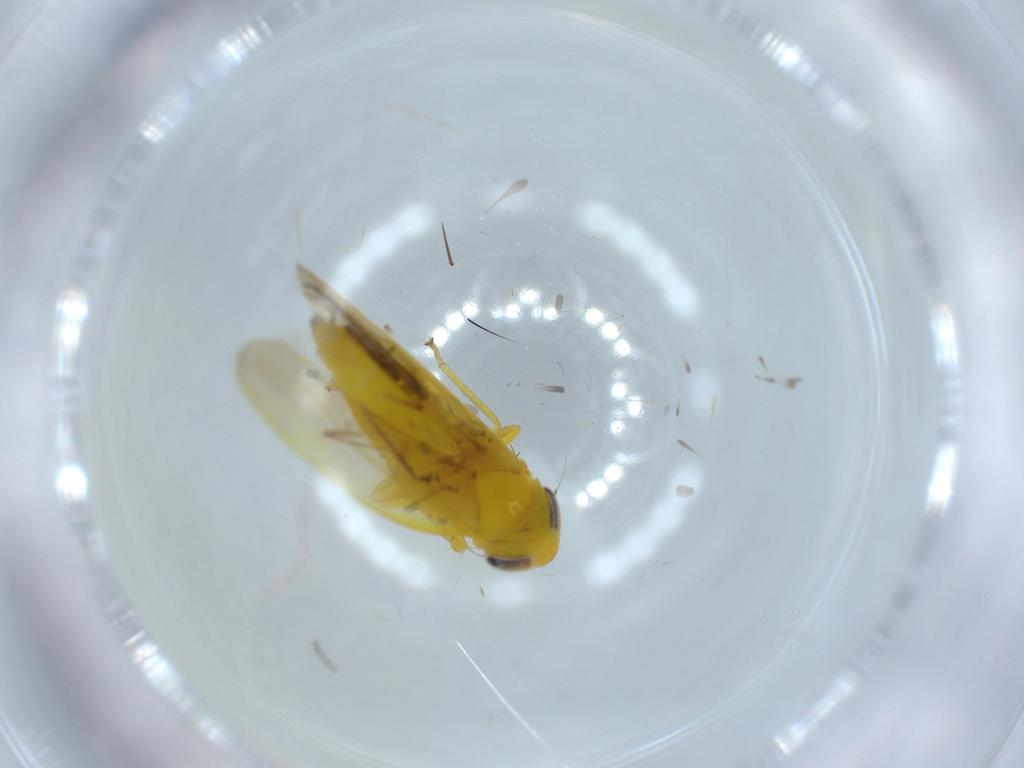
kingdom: Animalia
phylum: Arthropoda
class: Insecta
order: Hemiptera
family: Cicadellidae
